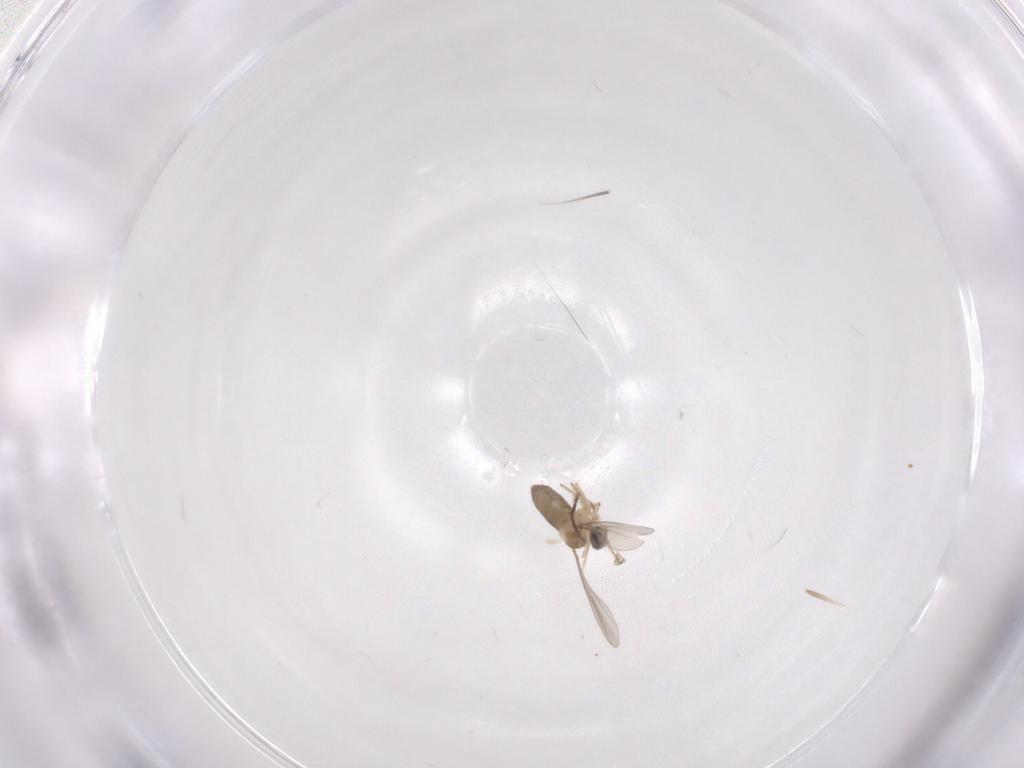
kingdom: Animalia
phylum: Arthropoda
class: Insecta
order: Diptera
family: Cecidomyiidae
